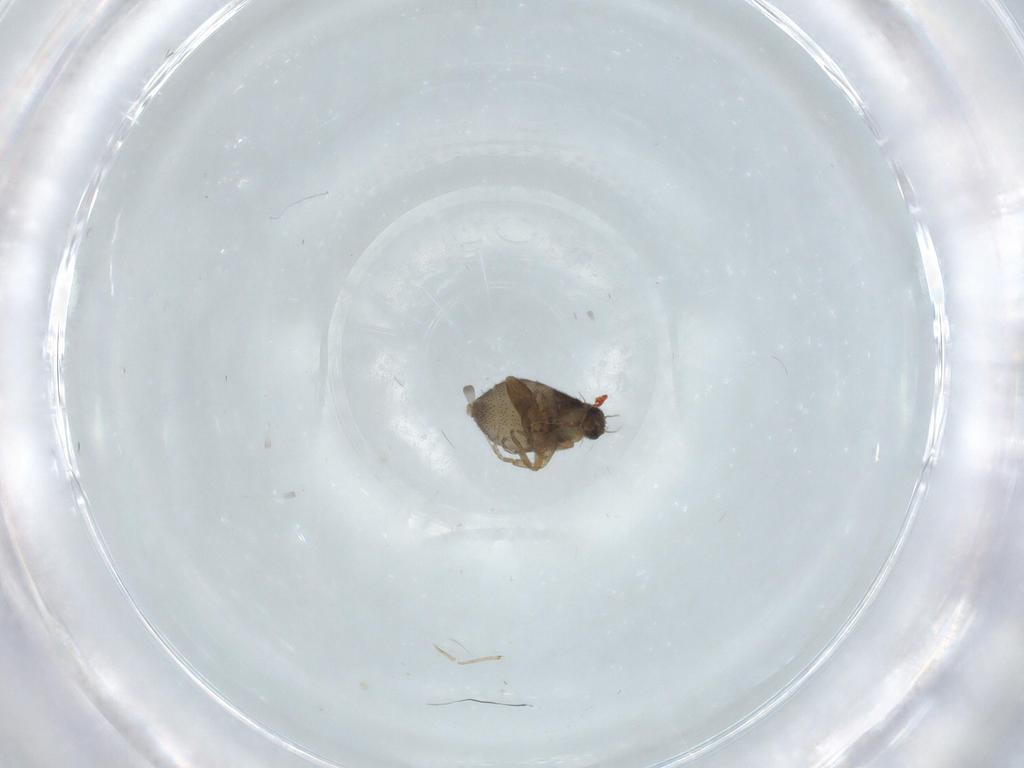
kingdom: Animalia
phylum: Arthropoda
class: Insecta
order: Diptera
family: Phoridae
